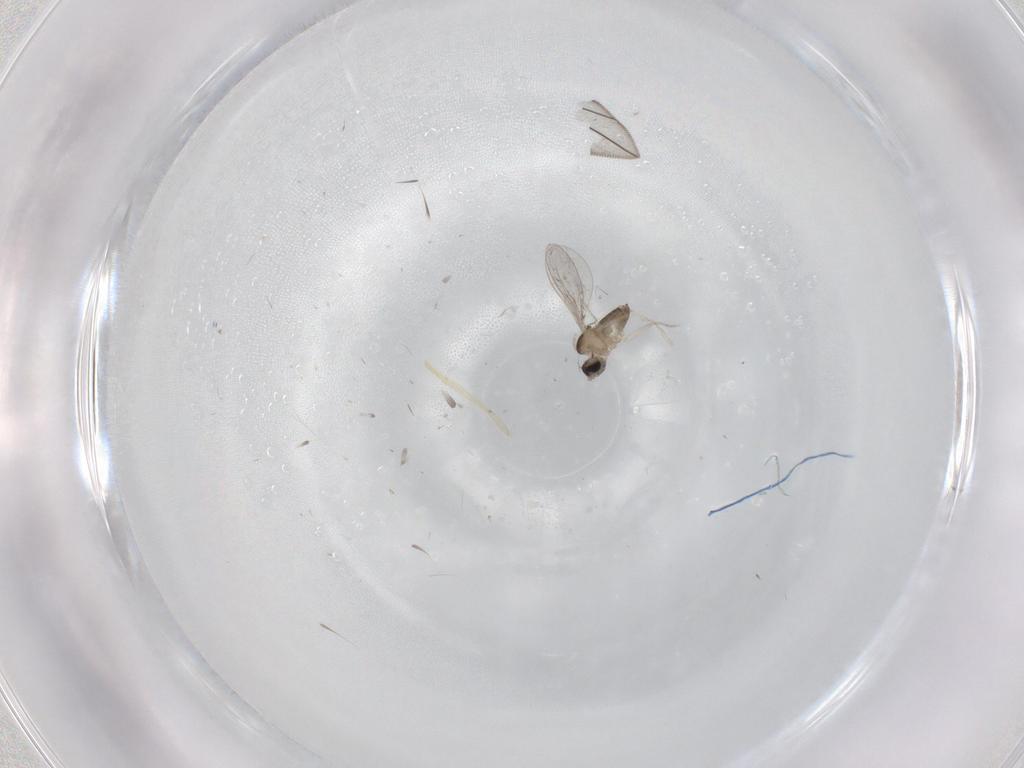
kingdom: Animalia
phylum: Arthropoda
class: Insecta
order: Diptera
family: Cecidomyiidae
